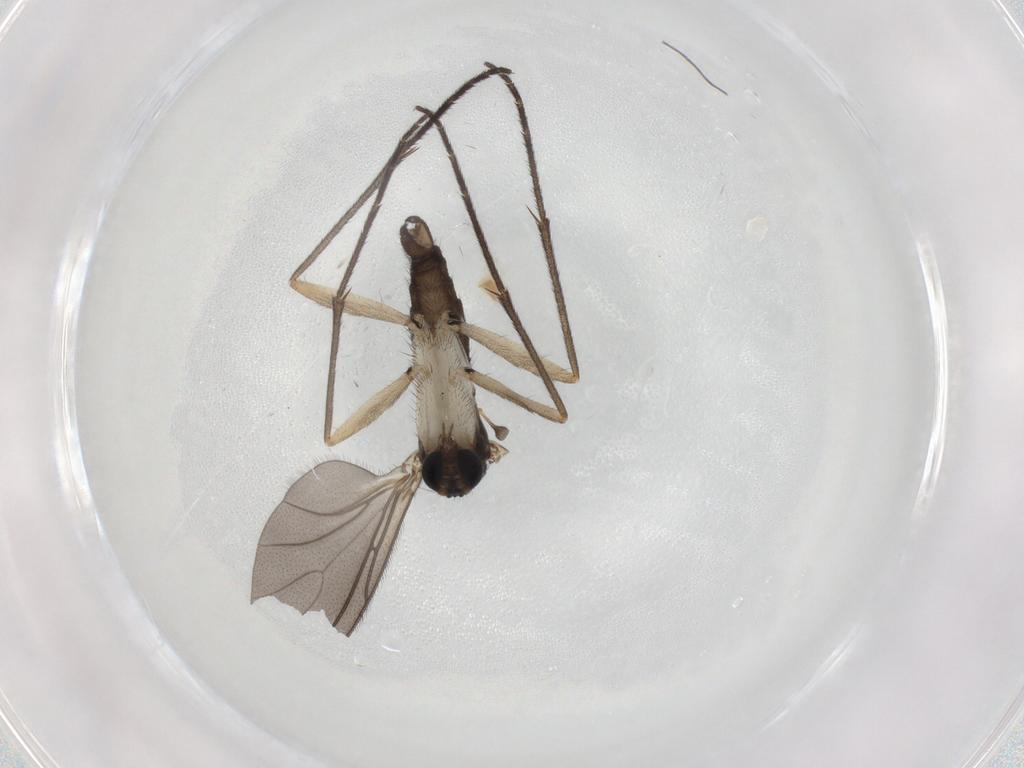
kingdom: Animalia
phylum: Arthropoda
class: Insecta
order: Diptera
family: Sciaridae
